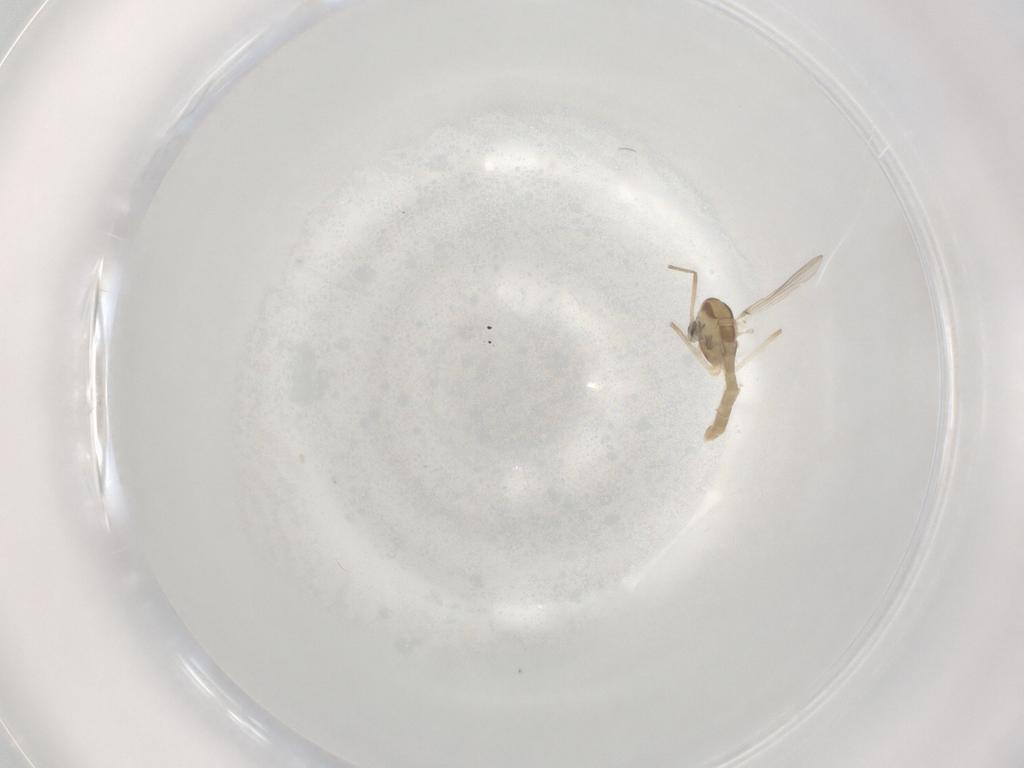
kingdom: Animalia
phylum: Arthropoda
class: Insecta
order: Diptera
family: Chironomidae
